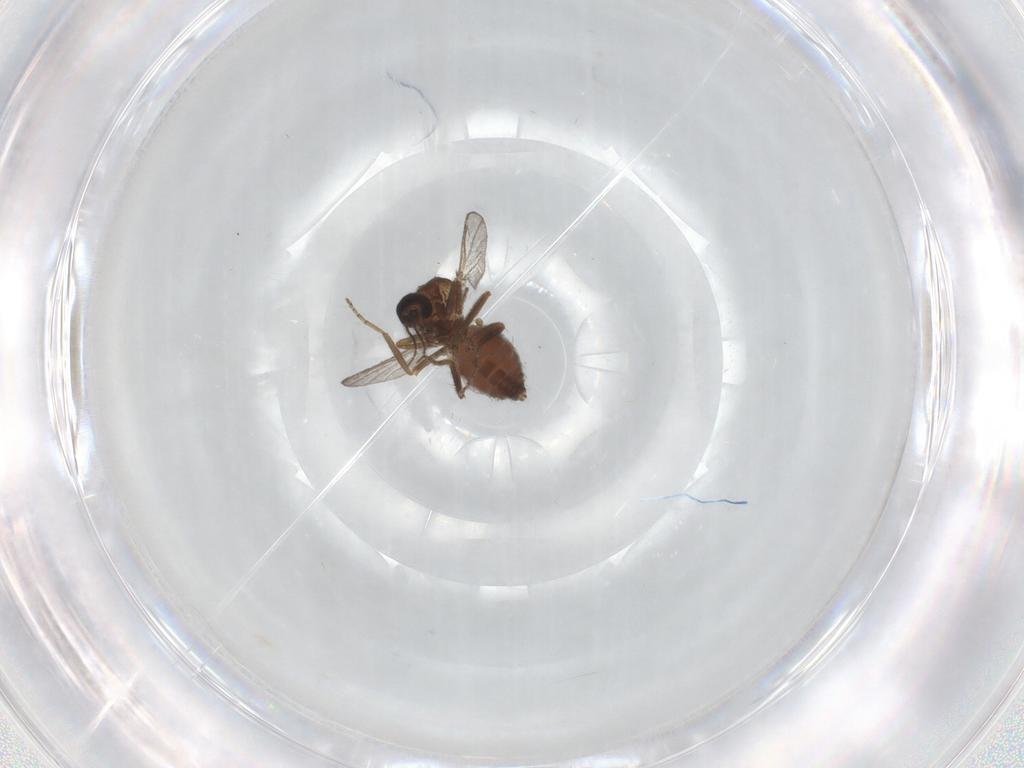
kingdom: Animalia
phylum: Arthropoda
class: Insecta
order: Diptera
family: Ceratopogonidae
